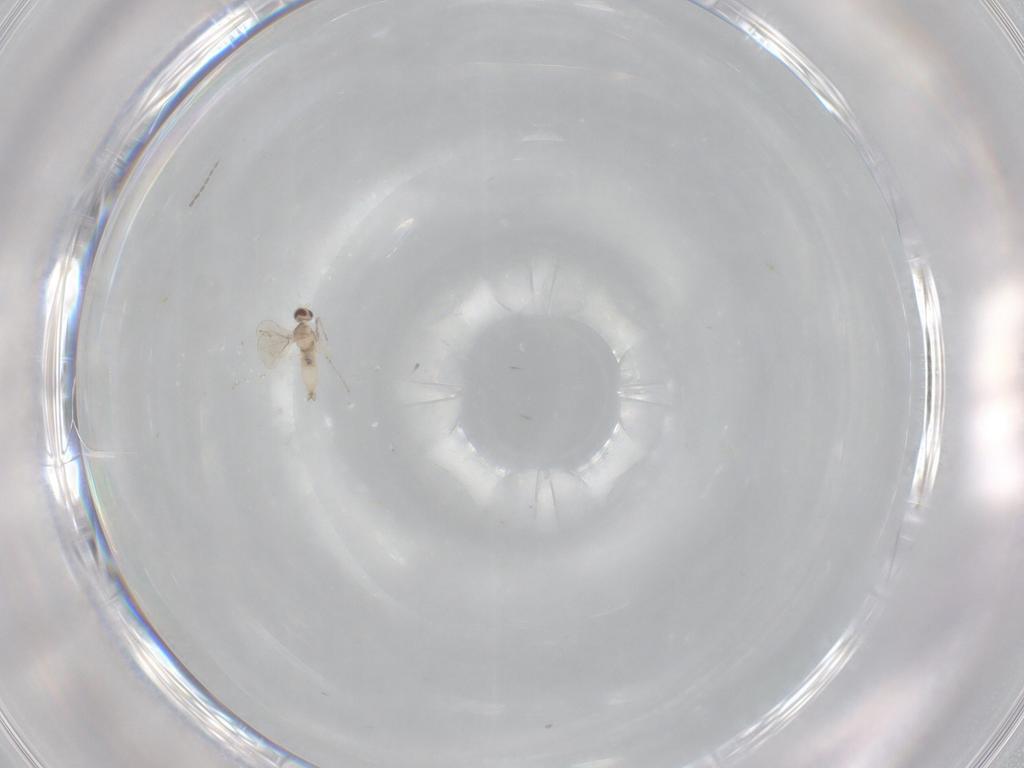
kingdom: Animalia
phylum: Arthropoda
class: Insecta
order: Diptera
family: Cecidomyiidae
